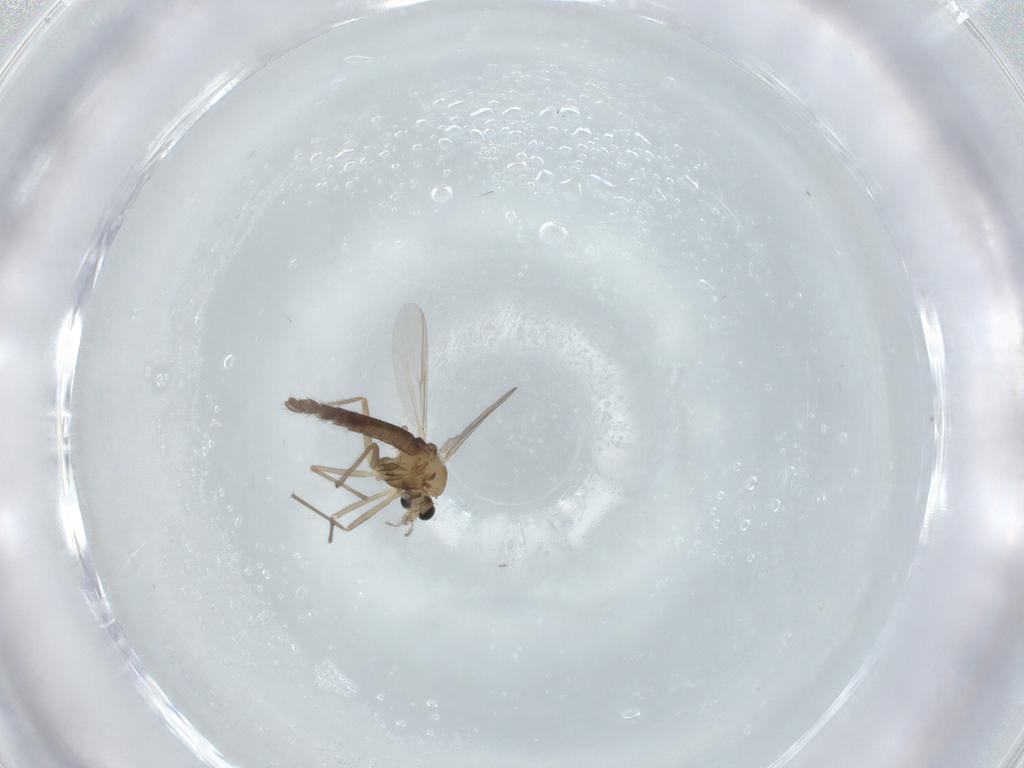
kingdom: Animalia
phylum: Arthropoda
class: Insecta
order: Diptera
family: Chironomidae
